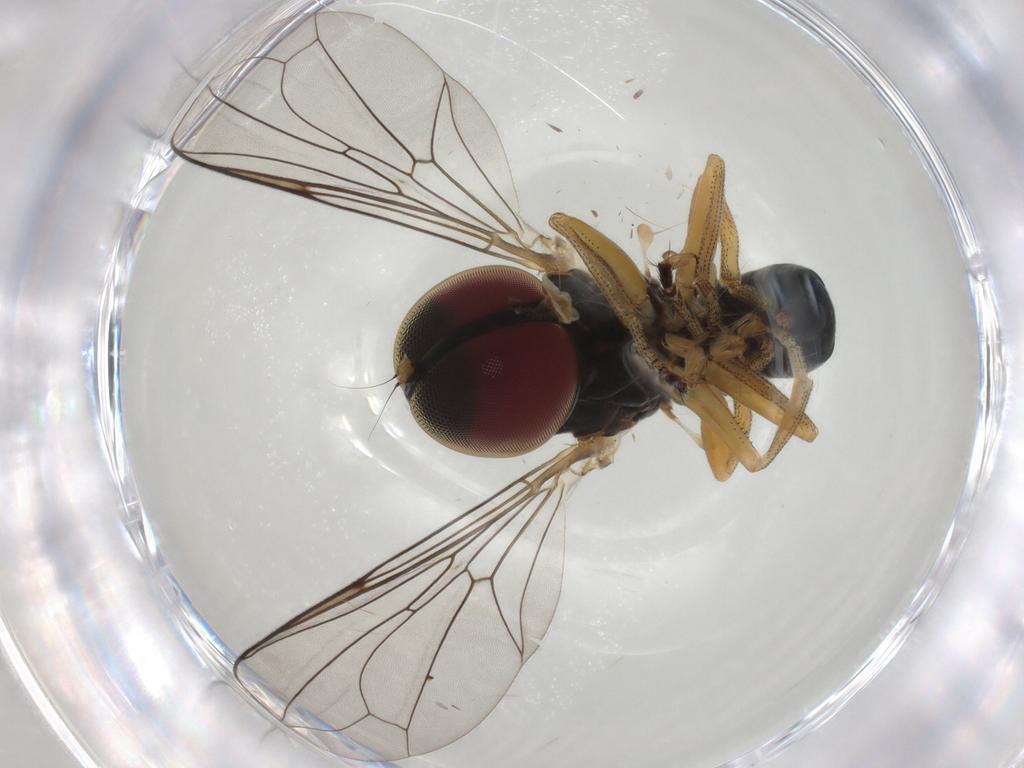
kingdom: Animalia
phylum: Arthropoda
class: Insecta
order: Diptera
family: Pipunculidae
